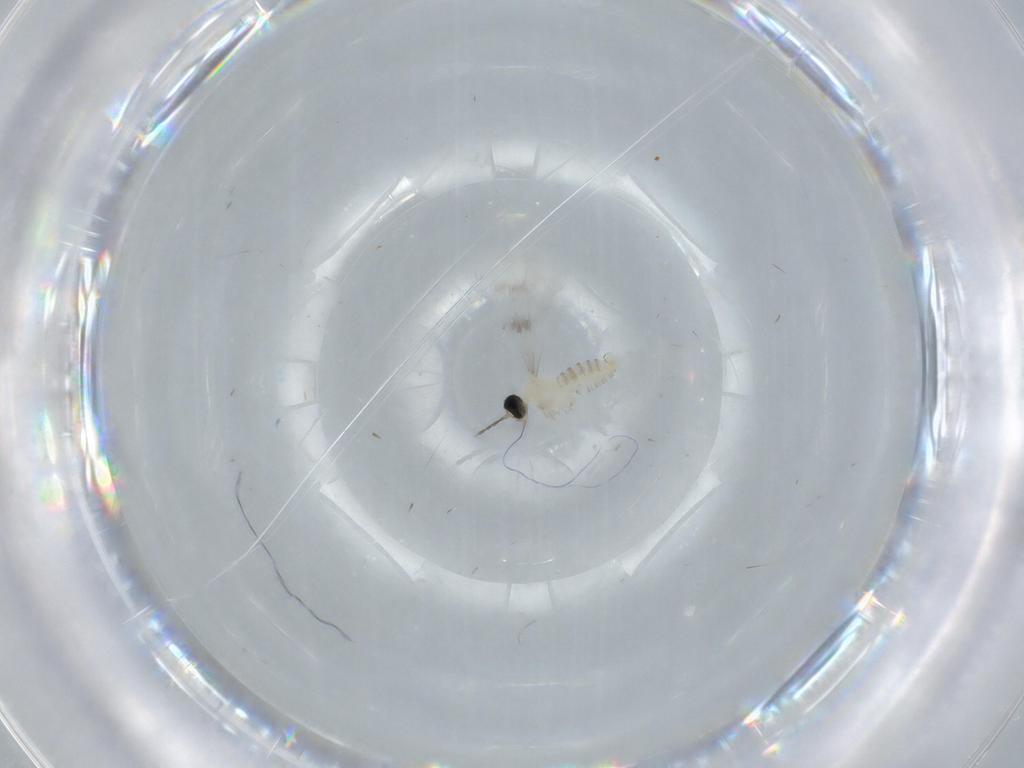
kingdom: Animalia
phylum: Arthropoda
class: Insecta
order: Diptera
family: Cecidomyiidae
